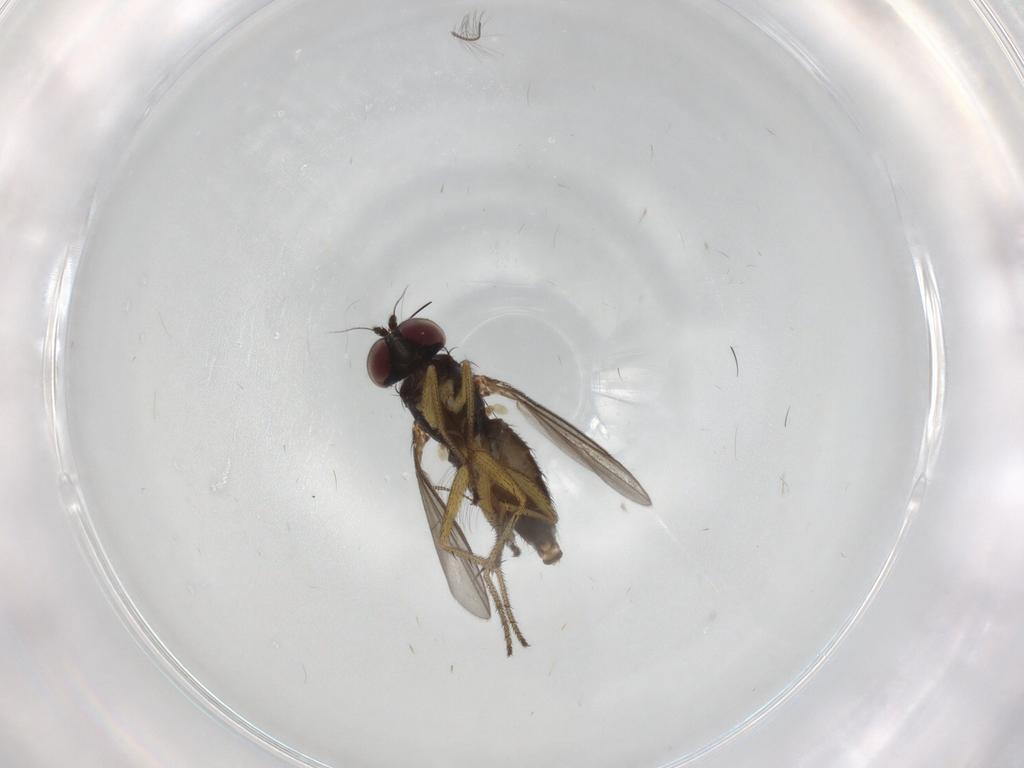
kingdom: Animalia
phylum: Arthropoda
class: Insecta
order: Diptera
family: Chironomidae
